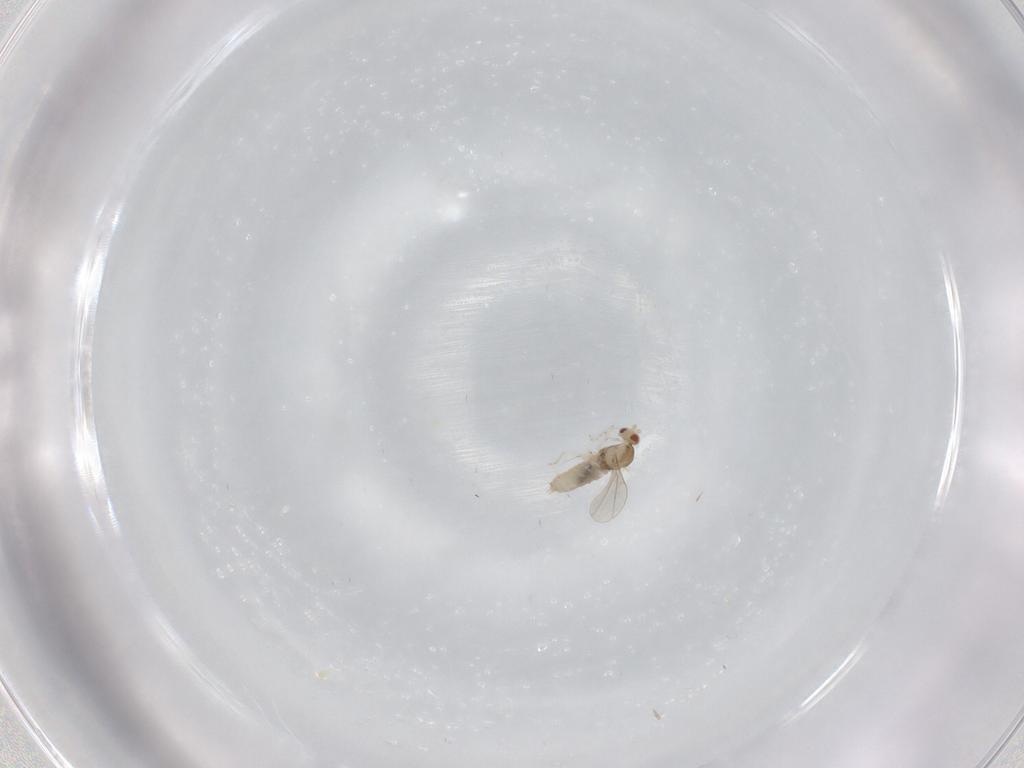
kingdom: Animalia
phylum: Arthropoda
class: Insecta
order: Diptera
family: Cecidomyiidae
